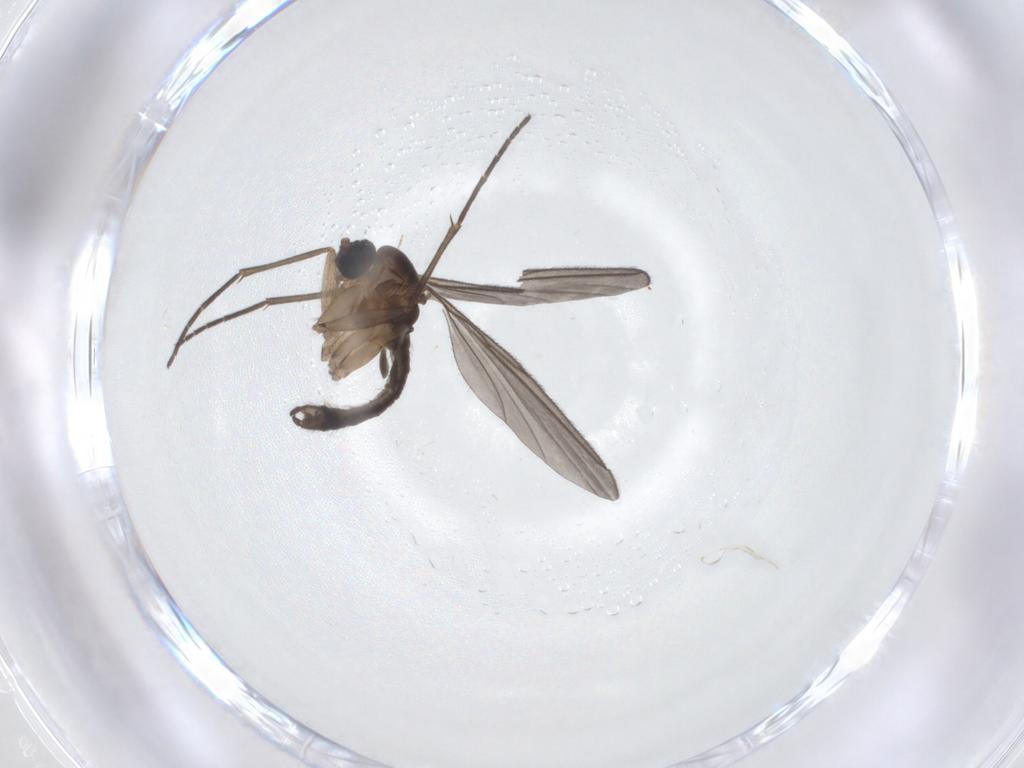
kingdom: Animalia
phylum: Arthropoda
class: Insecta
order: Diptera
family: Sciaridae
